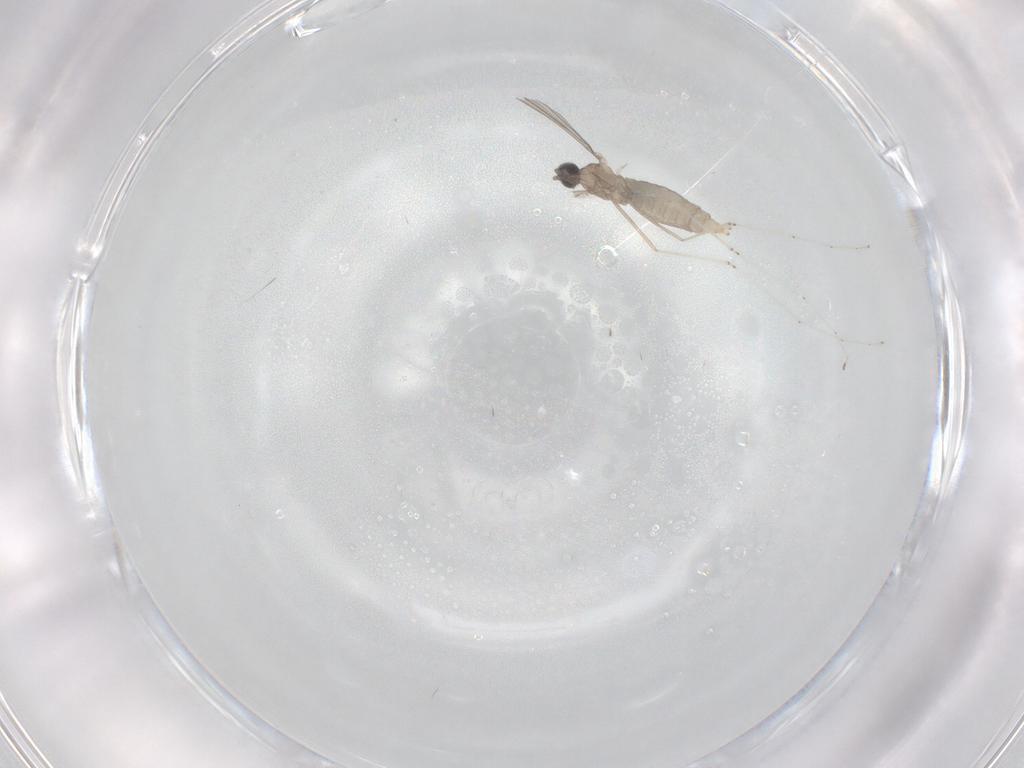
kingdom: Animalia
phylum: Arthropoda
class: Insecta
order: Diptera
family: Cecidomyiidae
